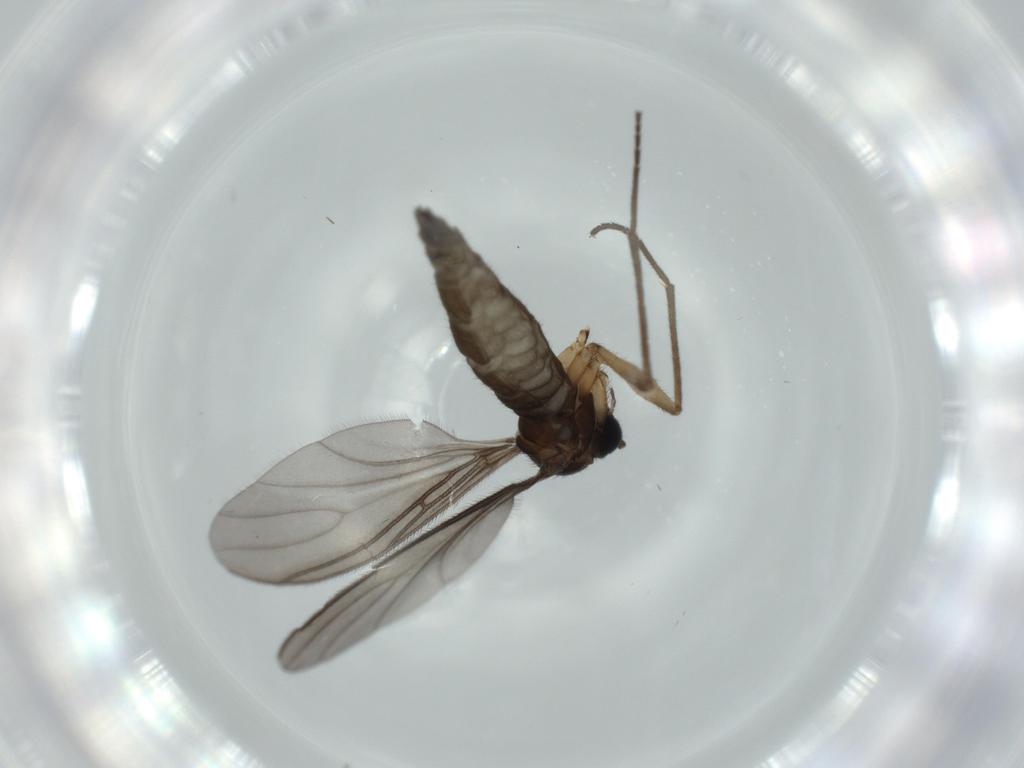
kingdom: Animalia
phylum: Arthropoda
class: Insecta
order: Diptera
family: Sciaridae
